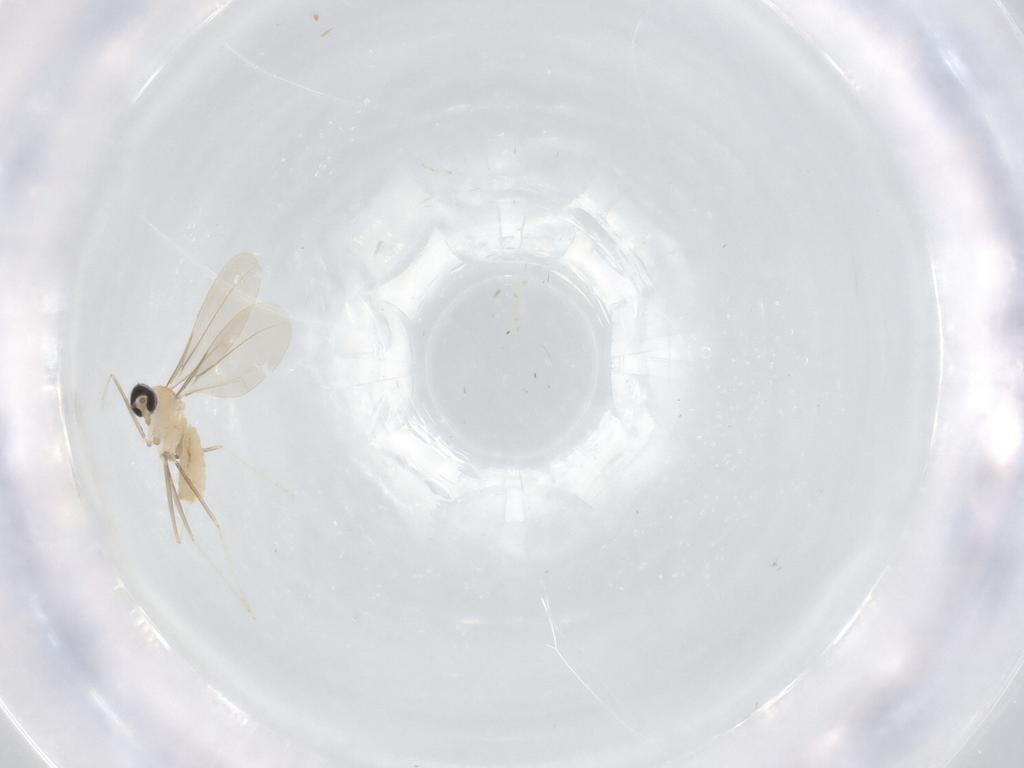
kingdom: Animalia
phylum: Arthropoda
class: Insecta
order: Diptera
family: Cecidomyiidae
